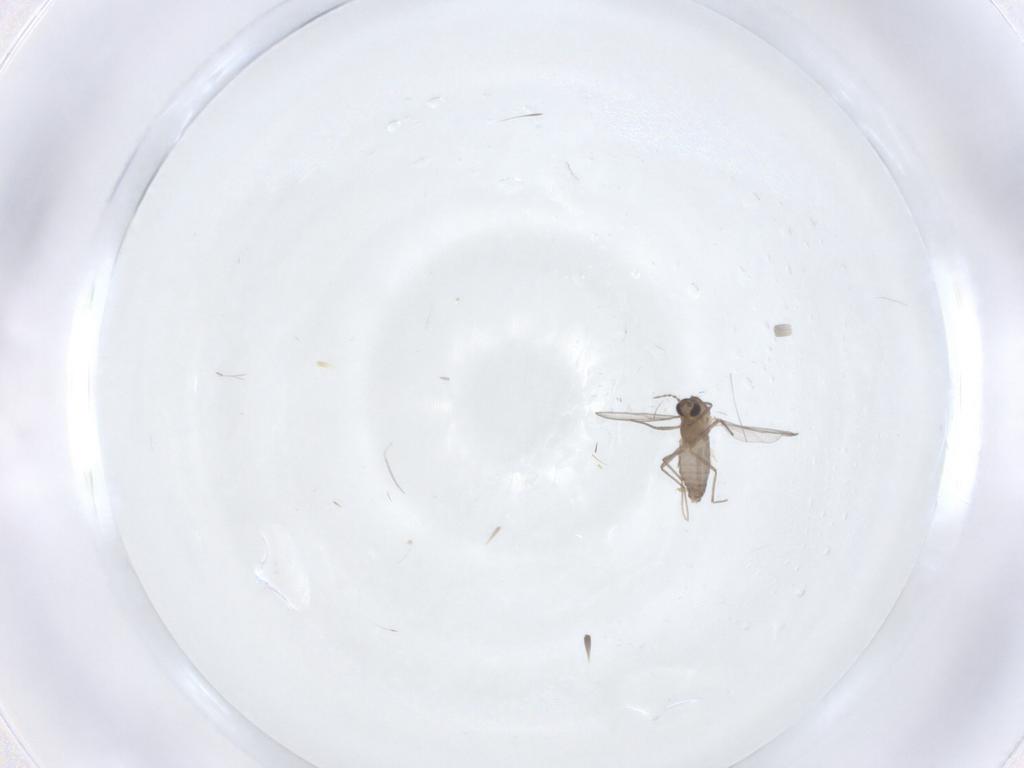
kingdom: Animalia
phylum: Arthropoda
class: Insecta
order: Diptera
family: Chironomidae
